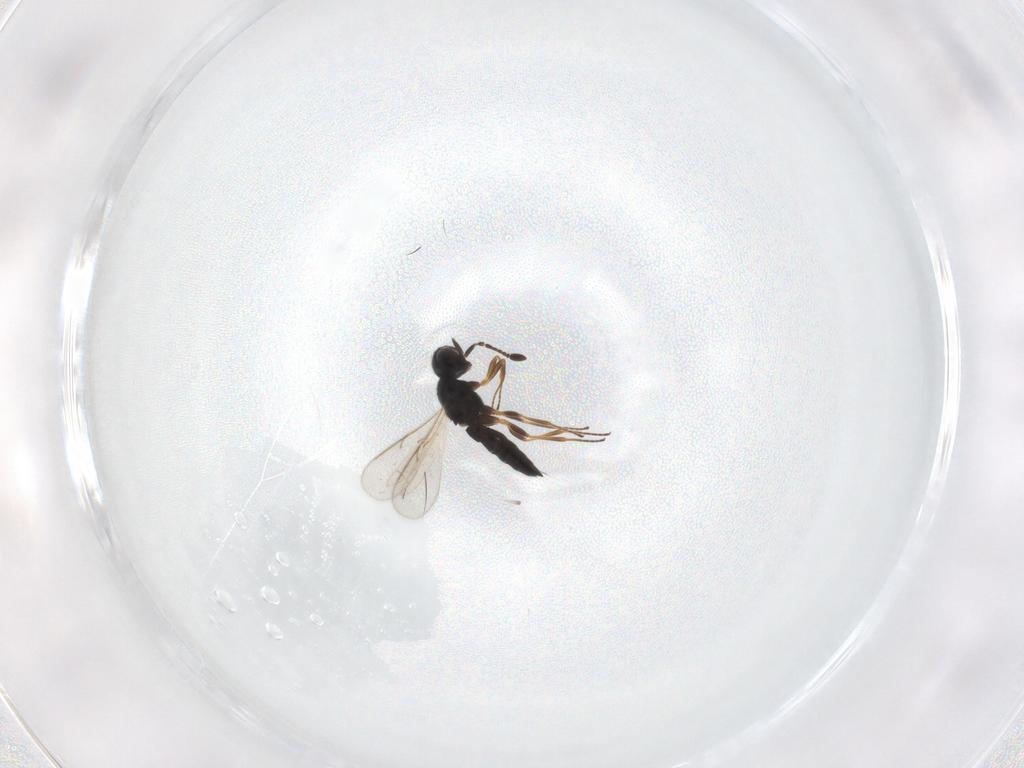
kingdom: Animalia
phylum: Arthropoda
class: Insecta
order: Hymenoptera
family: Scelionidae
